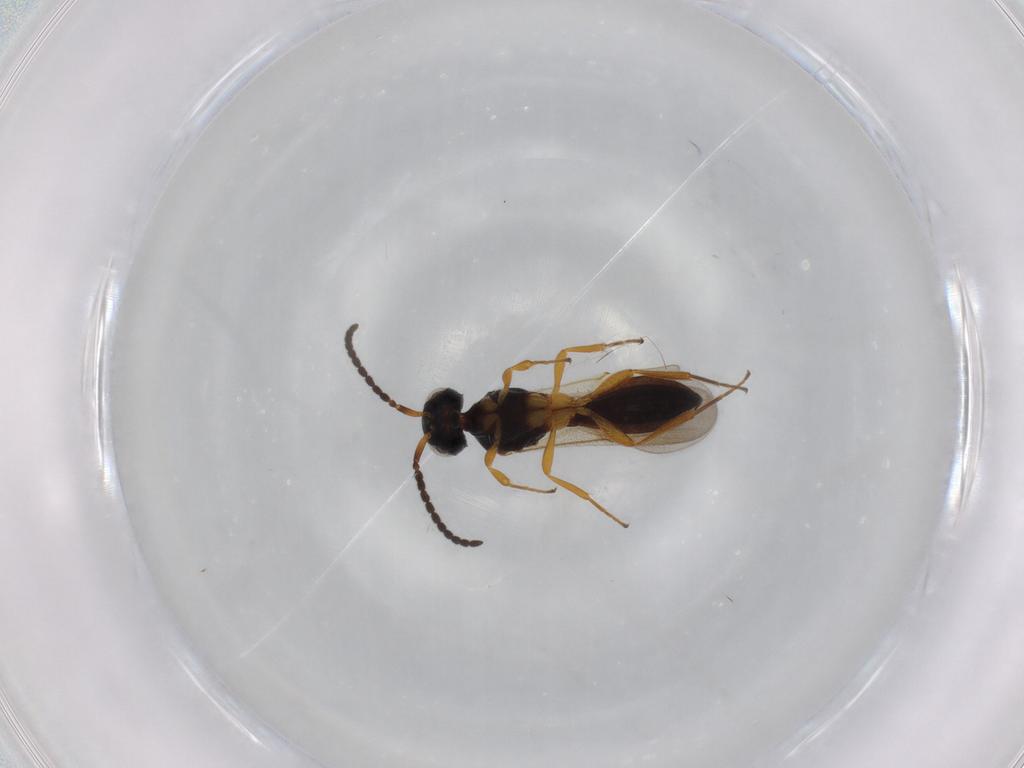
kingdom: Animalia
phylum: Arthropoda
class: Insecta
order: Hymenoptera
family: Scelionidae
